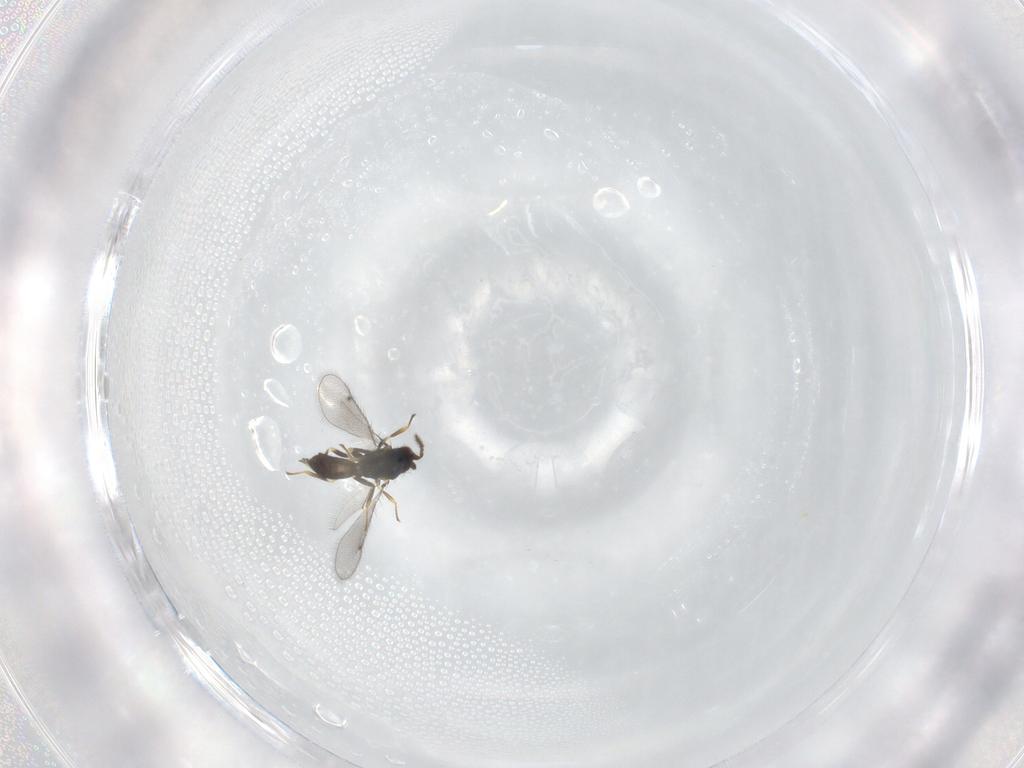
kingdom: Animalia
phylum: Arthropoda
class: Insecta
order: Hymenoptera
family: Eulophidae
